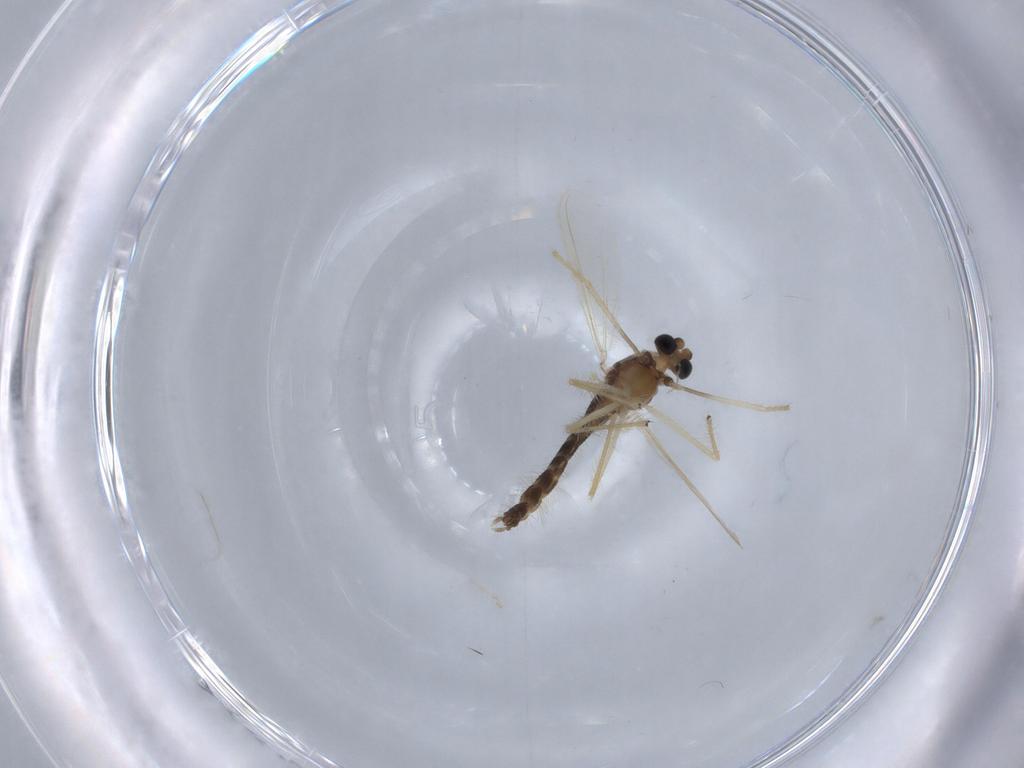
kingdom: Animalia
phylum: Arthropoda
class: Insecta
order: Diptera
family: Chironomidae
